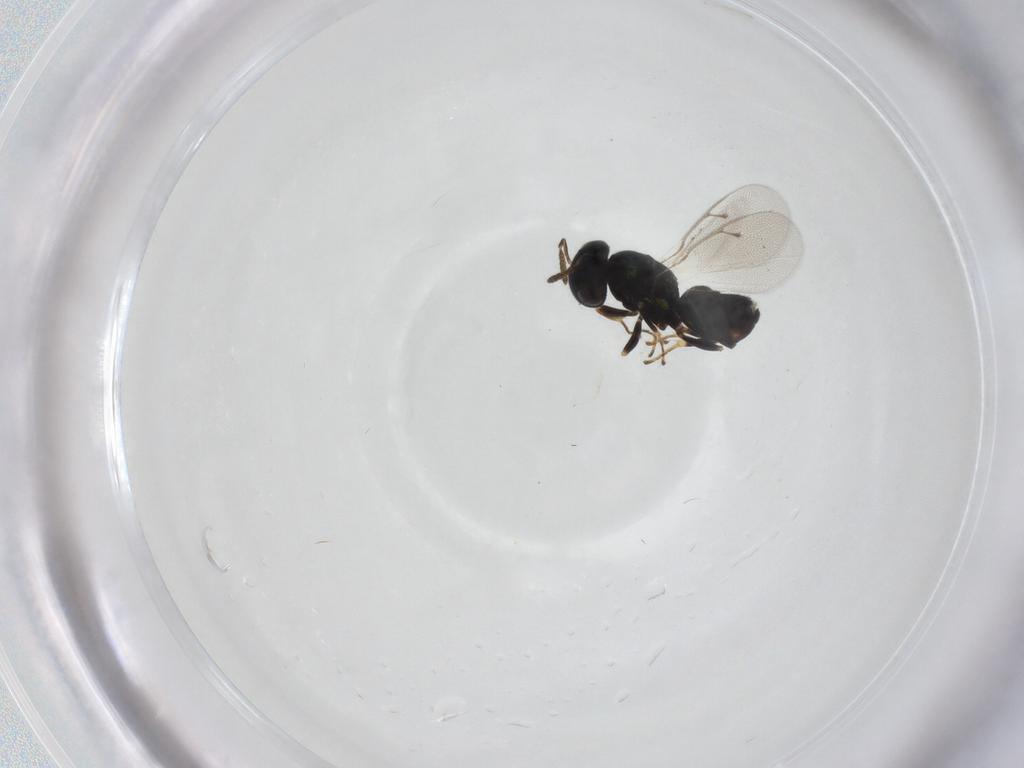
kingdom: Animalia
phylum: Arthropoda
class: Insecta
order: Hymenoptera
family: Pteromalidae
